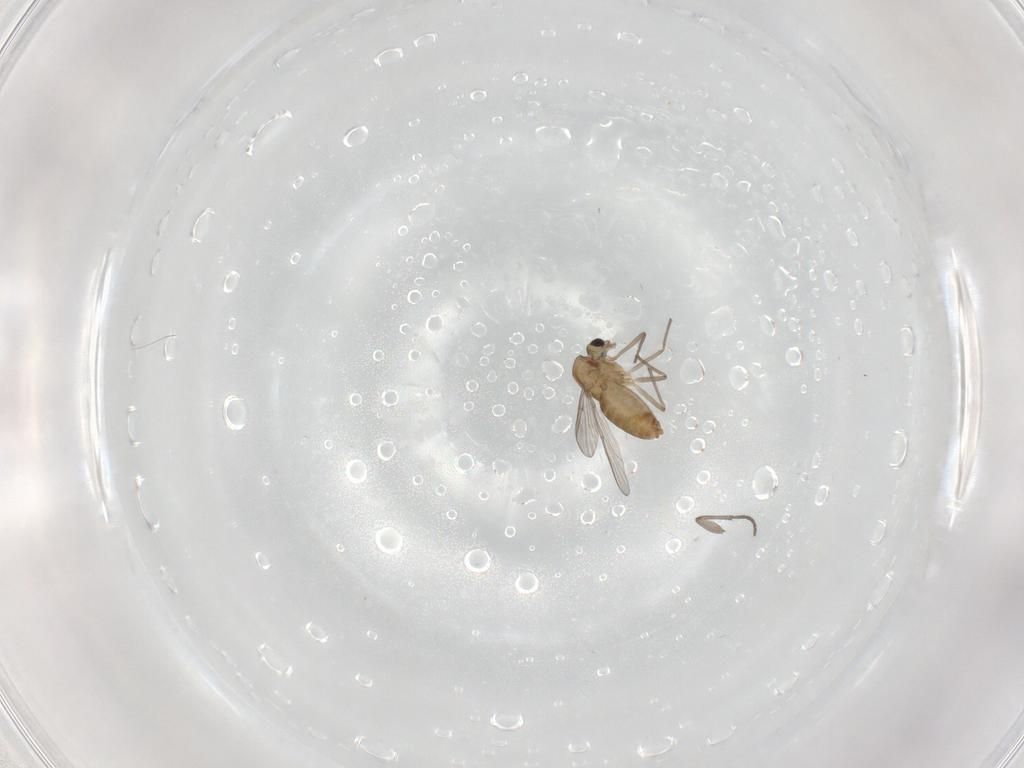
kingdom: Animalia
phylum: Arthropoda
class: Insecta
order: Diptera
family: Chironomidae
